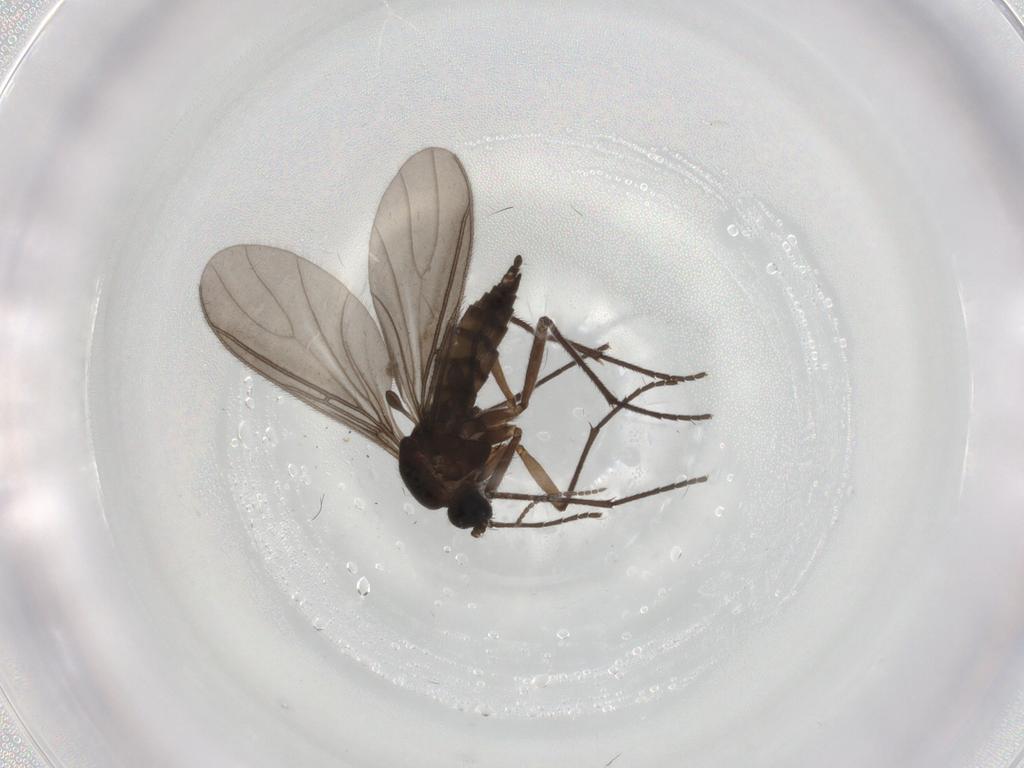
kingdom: Animalia
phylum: Arthropoda
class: Insecta
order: Diptera
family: Sciaridae
